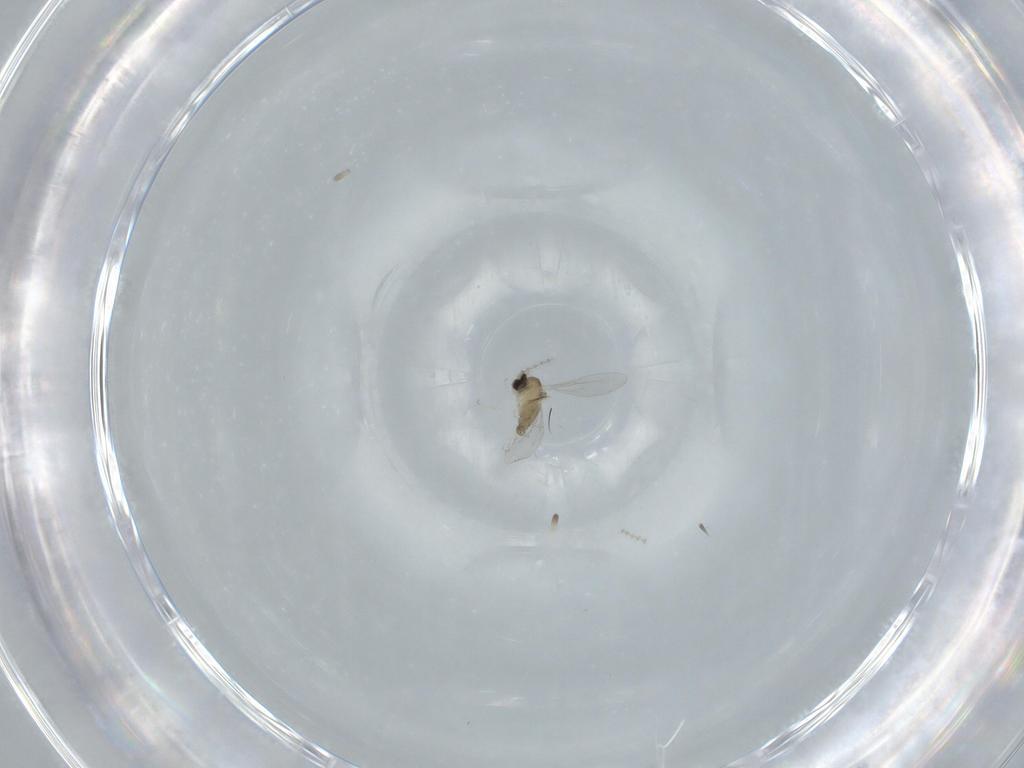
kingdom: Animalia
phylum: Arthropoda
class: Insecta
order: Diptera
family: Cecidomyiidae
